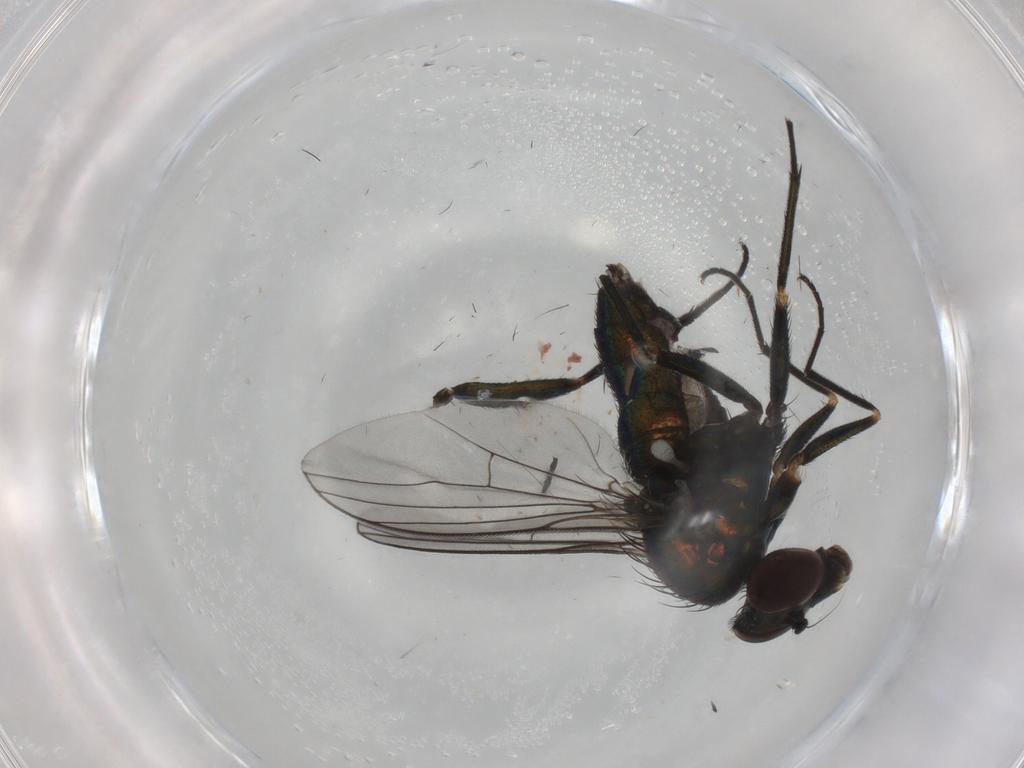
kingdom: Animalia
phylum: Arthropoda
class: Insecta
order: Diptera
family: Dolichopodidae
